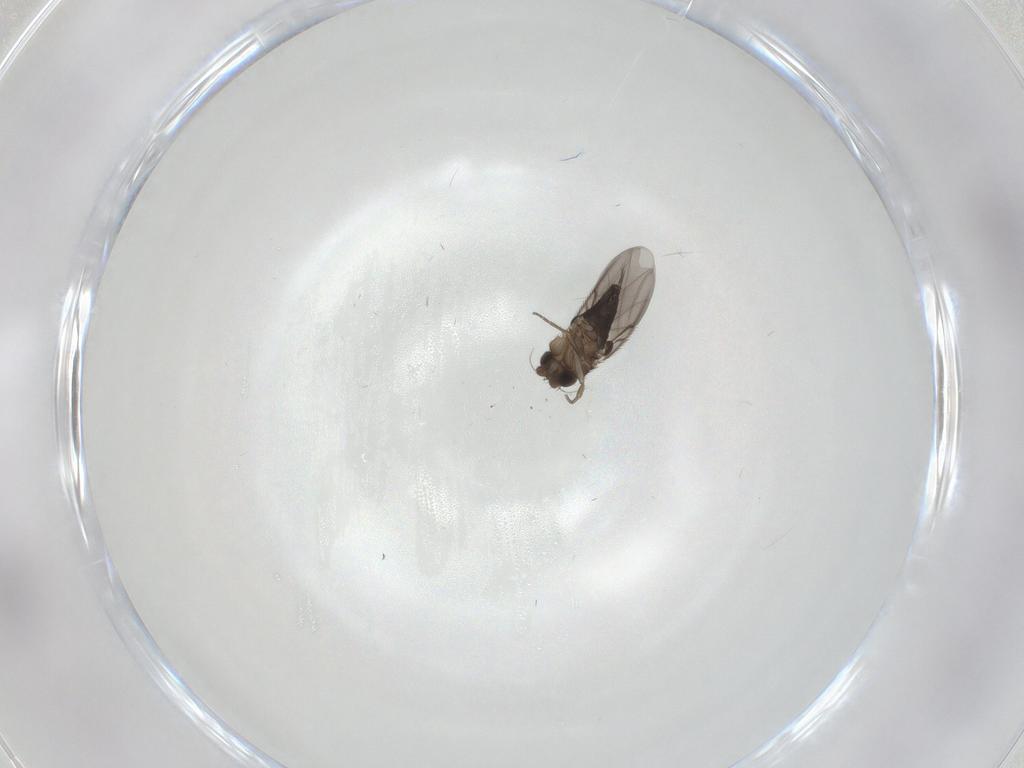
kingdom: Animalia
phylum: Arthropoda
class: Insecta
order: Diptera
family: Phoridae
